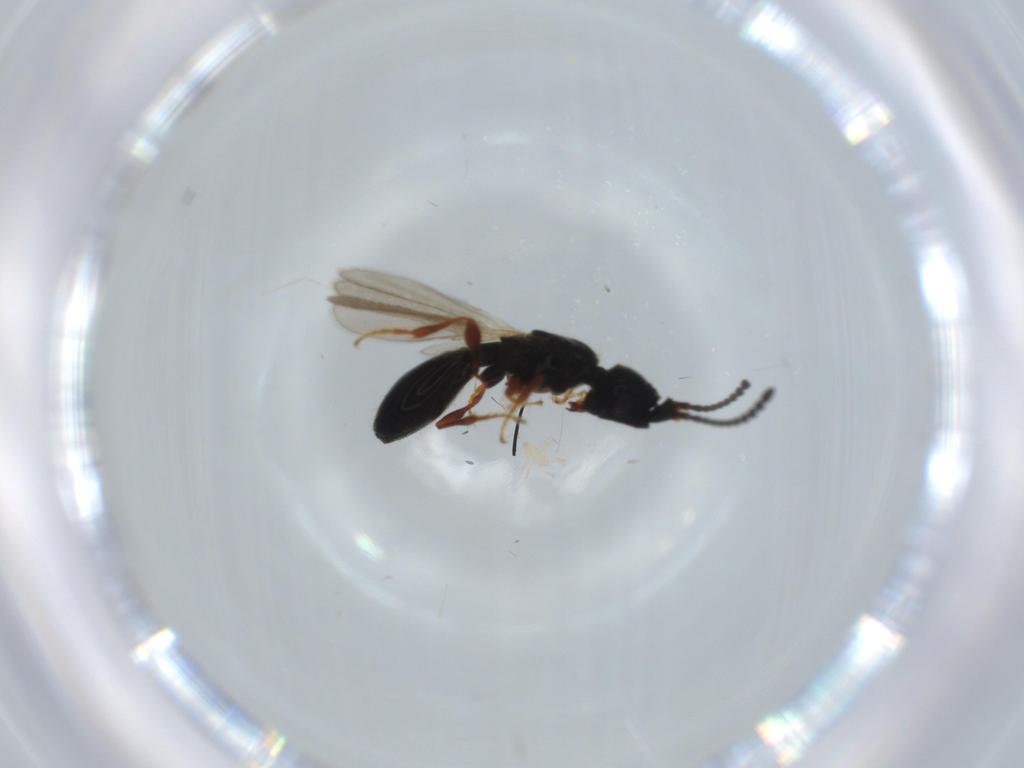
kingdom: Animalia
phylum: Arthropoda
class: Insecta
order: Hymenoptera
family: Diapriidae
